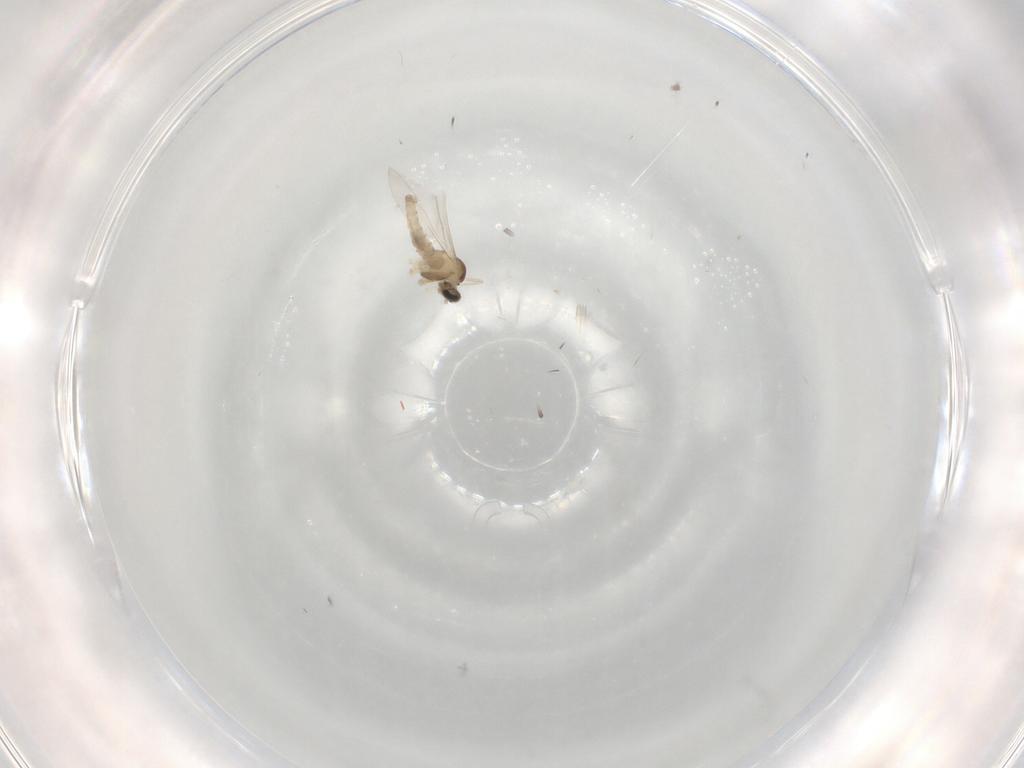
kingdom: Animalia
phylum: Arthropoda
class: Insecta
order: Diptera
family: Cecidomyiidae
